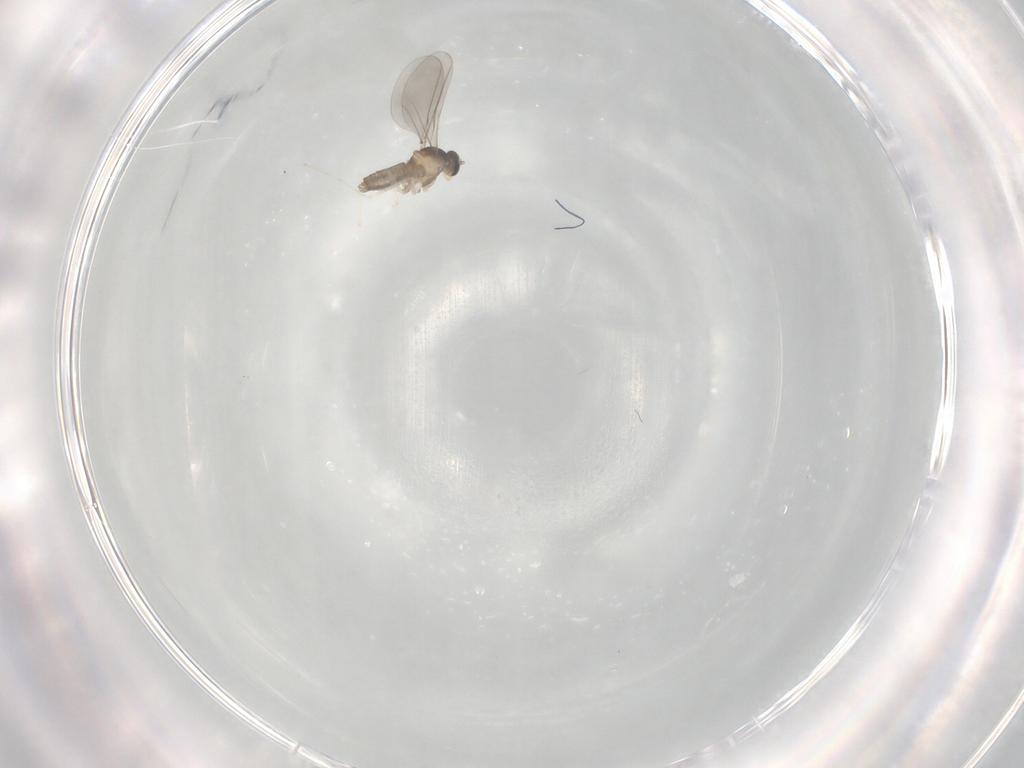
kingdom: Animalia
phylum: Arthropoda
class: Insecta
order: Diptera
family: Cecidomyiidae
